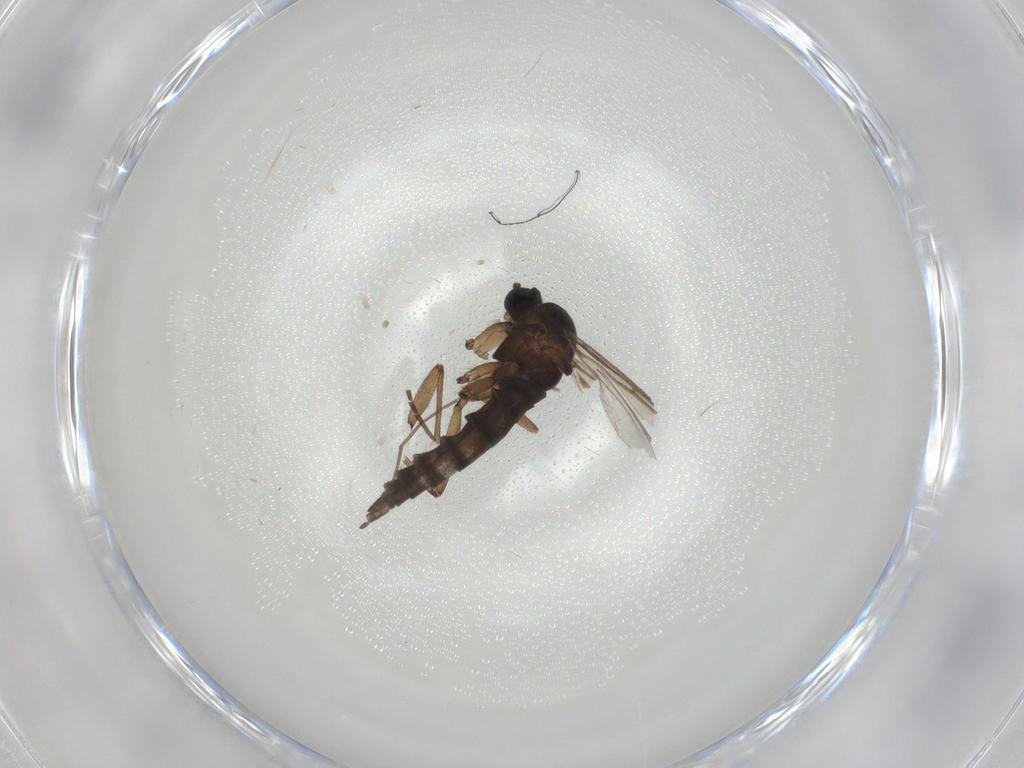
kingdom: Animalia
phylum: Arthropoda
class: Insecta
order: Diptera
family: Sciaridae
